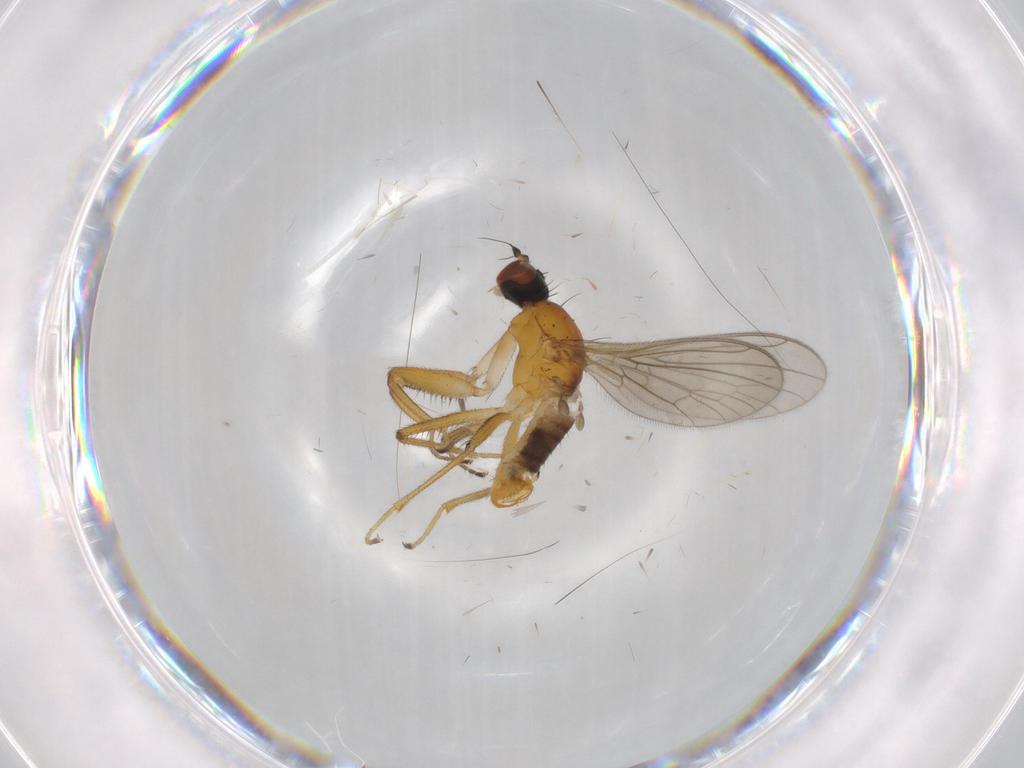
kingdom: Animalia
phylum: Arthropoda
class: Insecta
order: Diptera
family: Empididae
